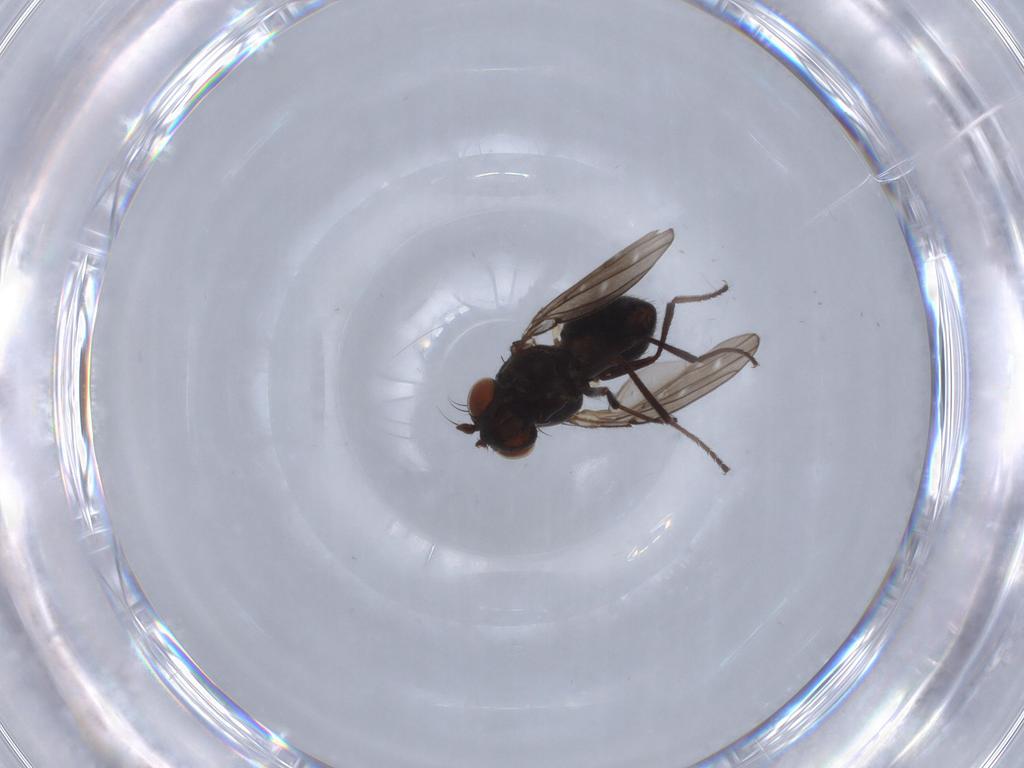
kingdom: Animalia
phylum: Arthropoda
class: Insecta
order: Diptera
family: Ephydridae
